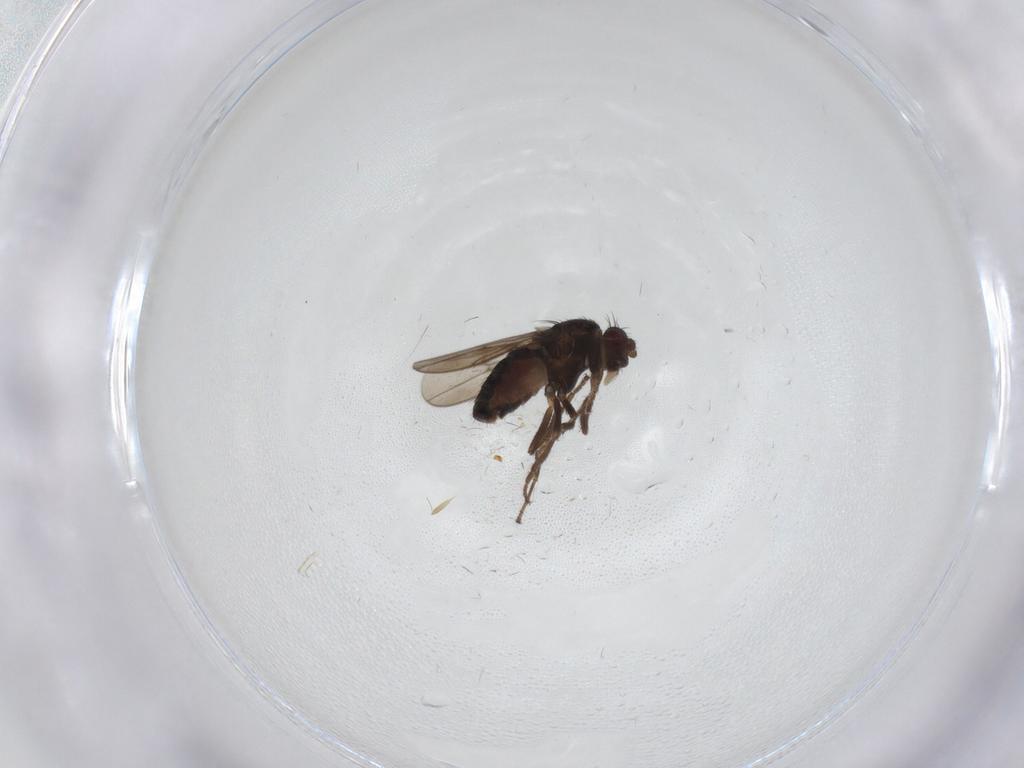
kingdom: Animalia
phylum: Arthropoda
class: Insecta
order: Diptera
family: Sphaeroceridae
